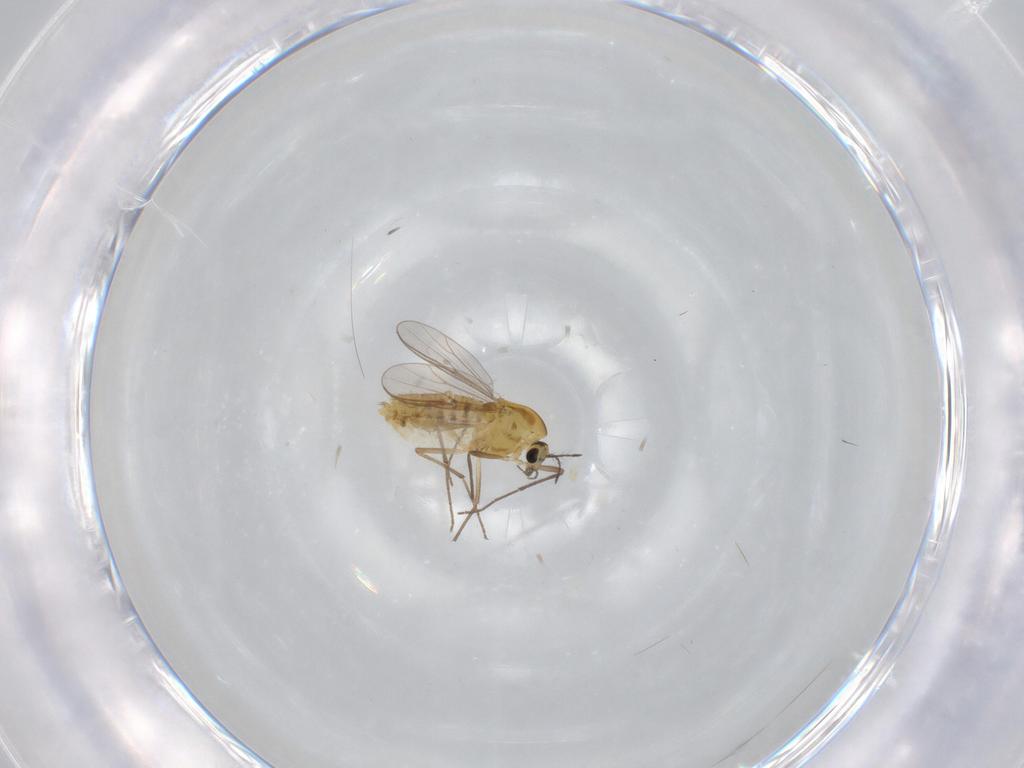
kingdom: Animalia
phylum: Arthropoda
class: Insecta
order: Diptera
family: Chironomidae
